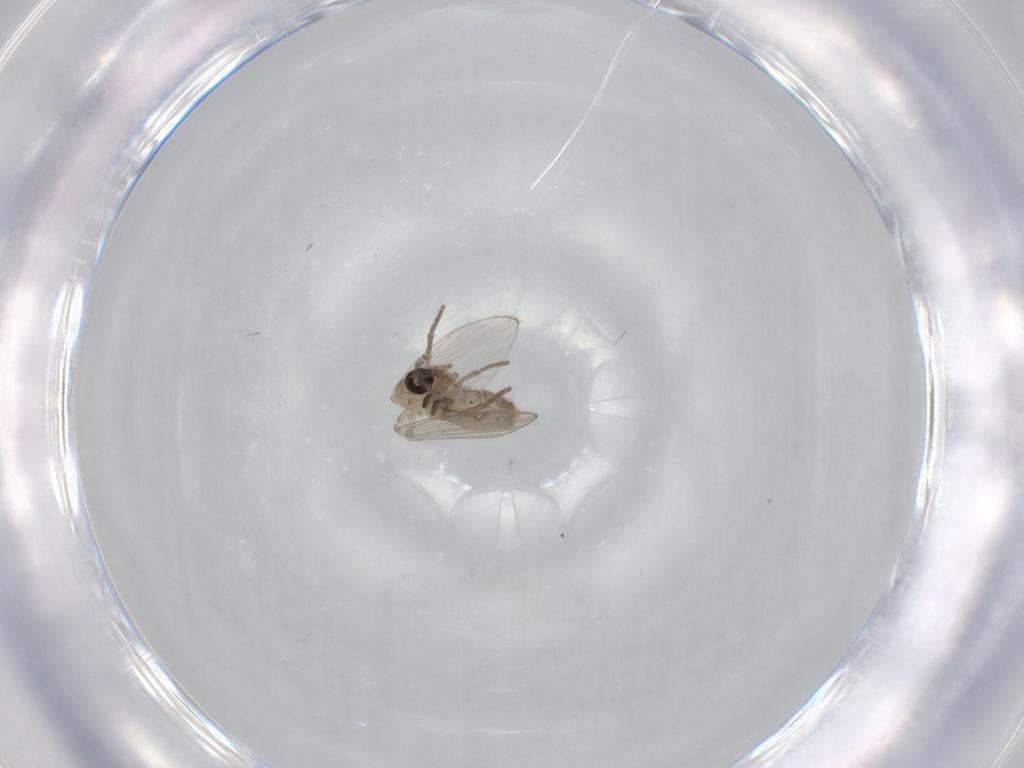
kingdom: Animalia
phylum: Arthropoda
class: Insecta
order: Diptera
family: Psychodidae
